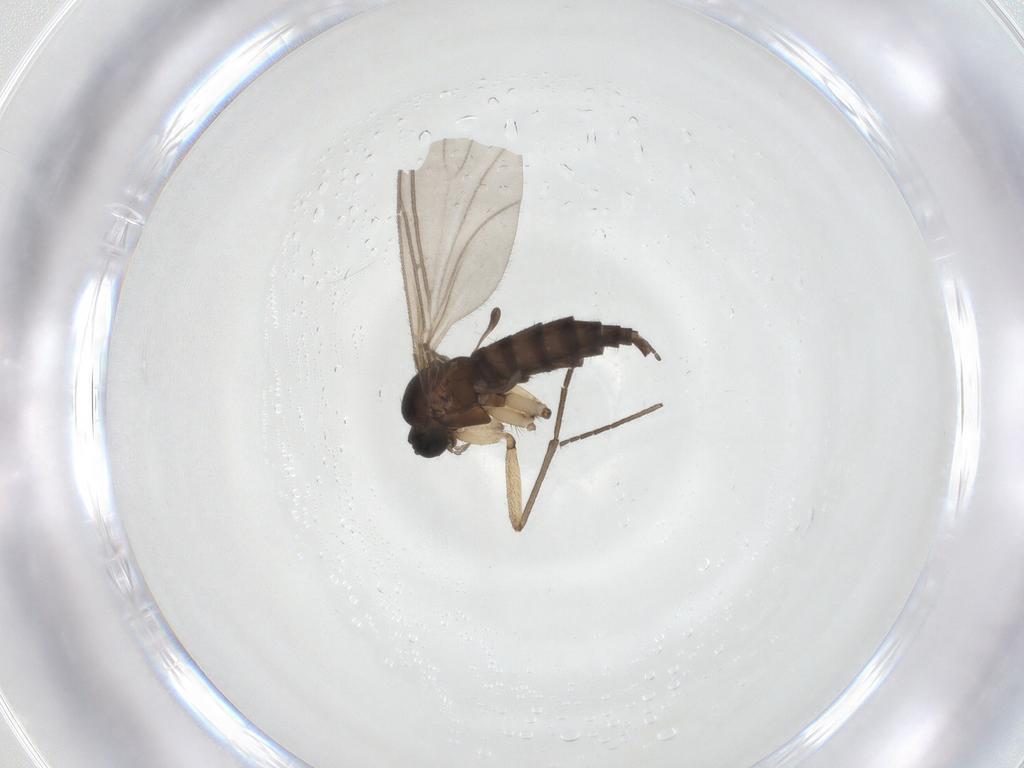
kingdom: Animalia
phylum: Arthropoda
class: Insecta
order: Diptera
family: Sciaridae
